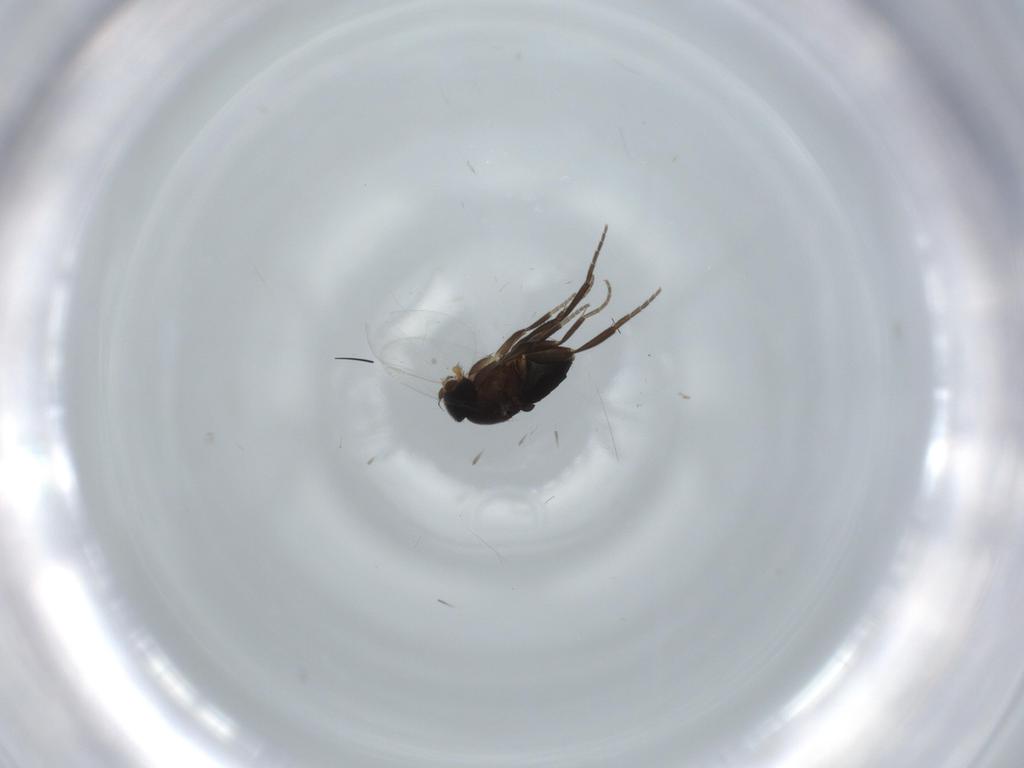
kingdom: Animalia
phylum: Arthropoda
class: Insecta
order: Diptera
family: Phoridae
